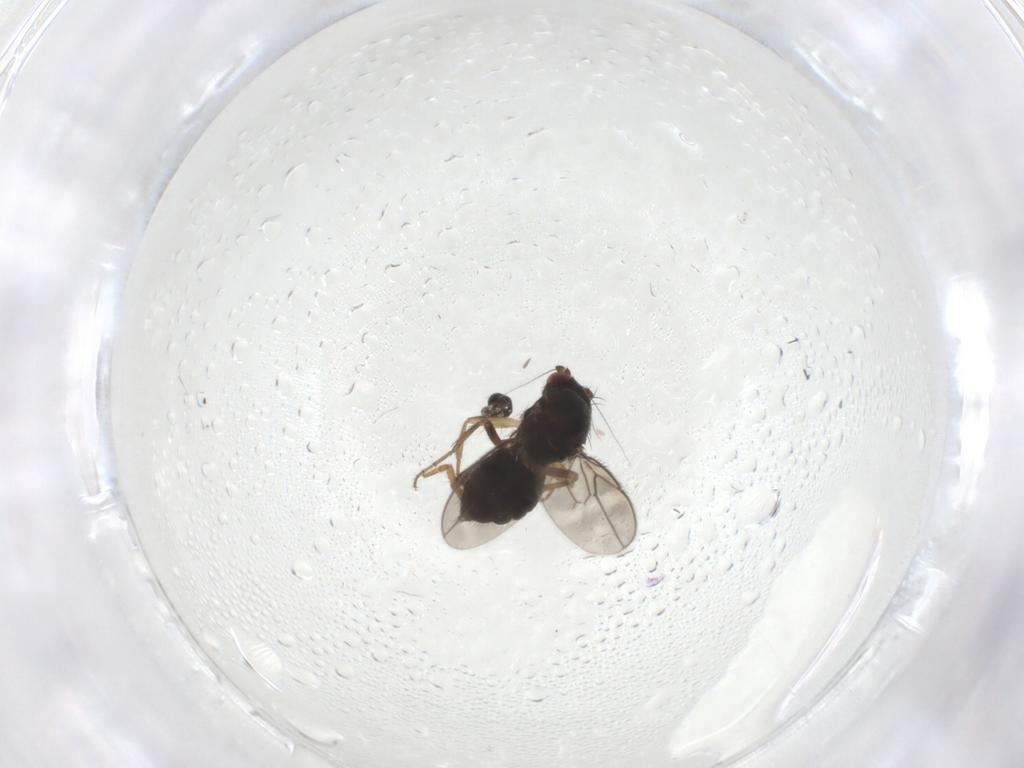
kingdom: Animalia
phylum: Arthropoda
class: Insecta
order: Diptera
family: Sphaeroceridae
